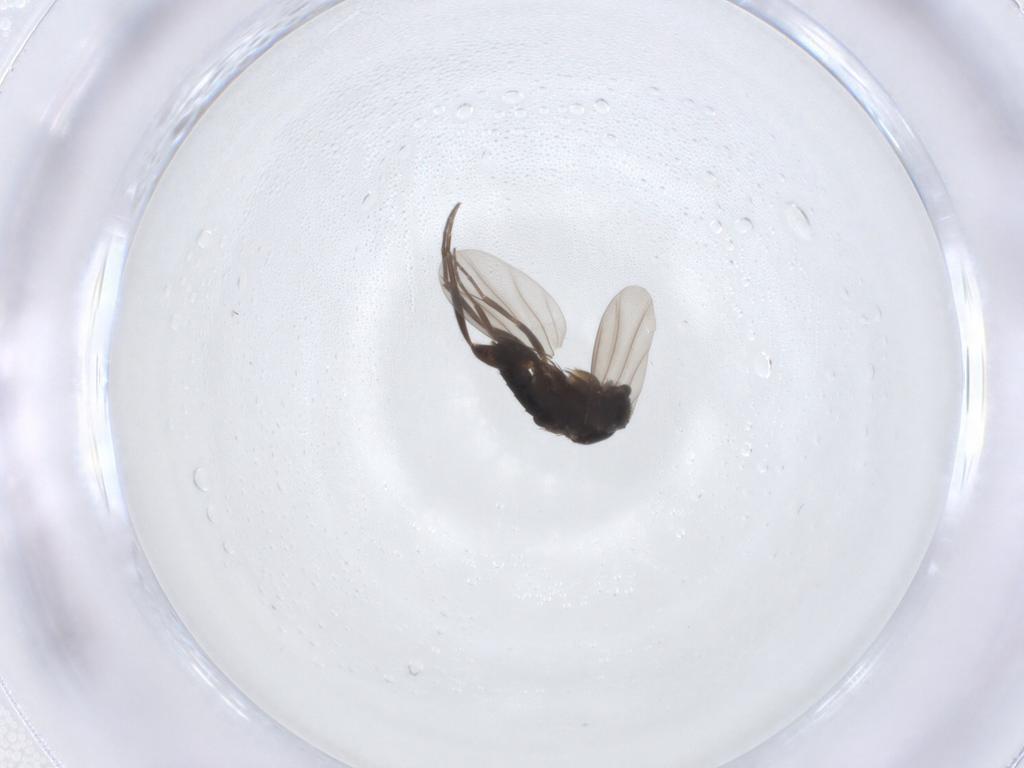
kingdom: Animalia
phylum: Arthropoda
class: Insecta
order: Diptera
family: Phoridae
